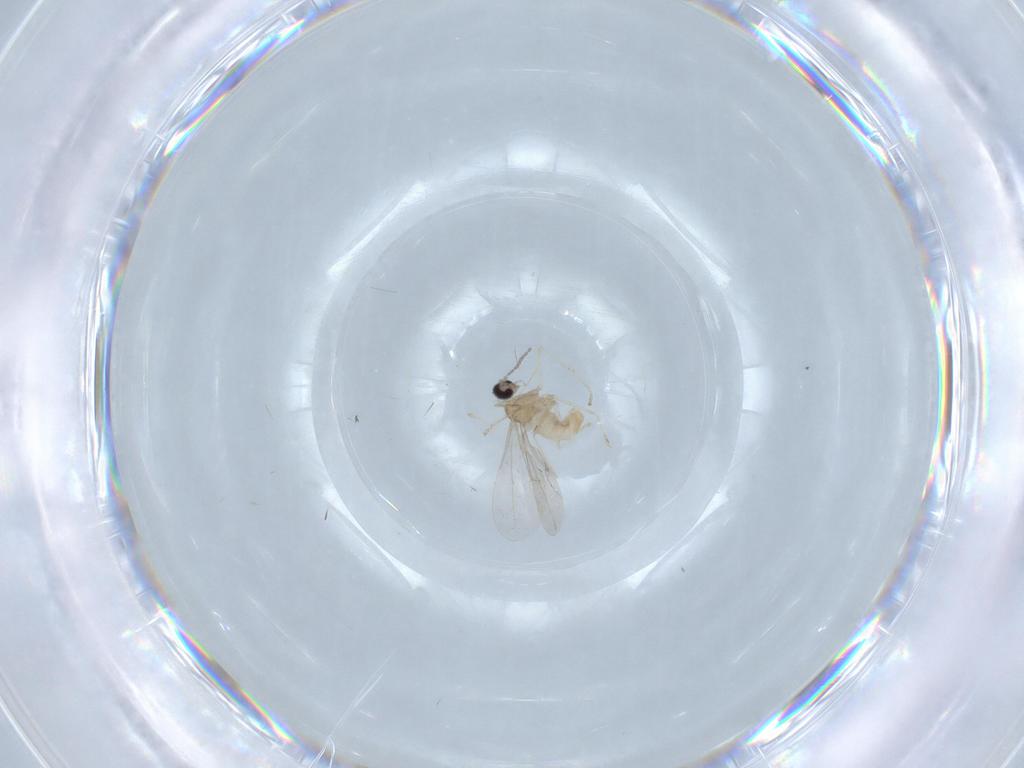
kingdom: Animalia
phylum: Arthropoda
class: Insecta
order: Diptera
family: Cecidomyiidae
